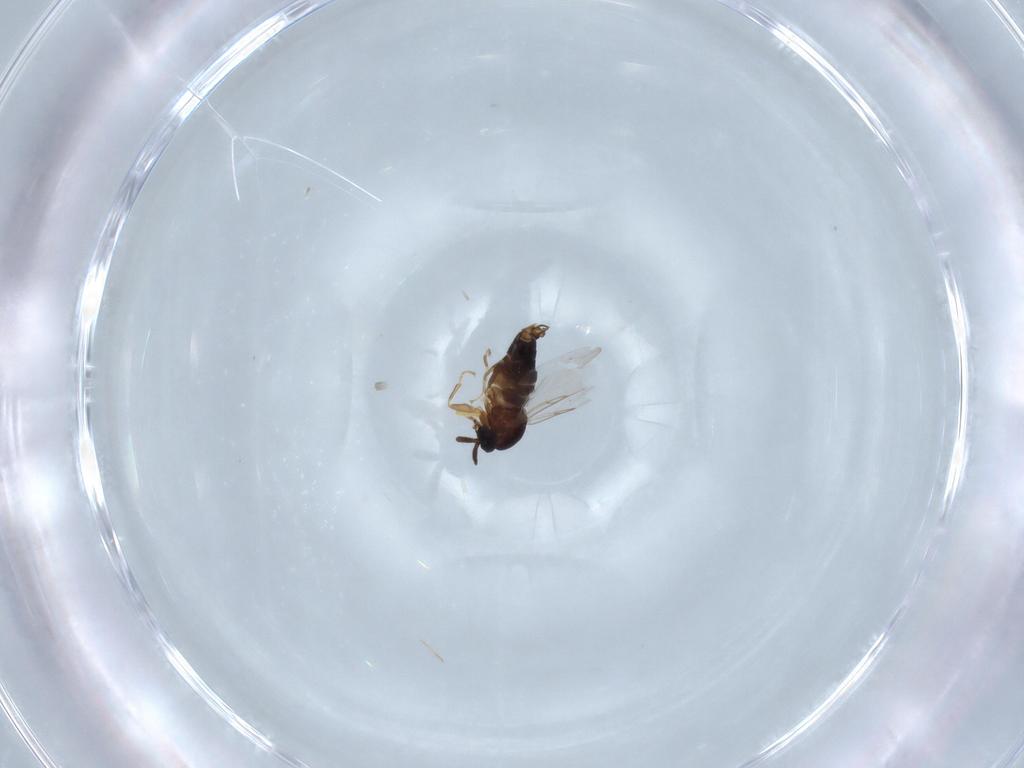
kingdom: Animalia
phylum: Arthropoda
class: Insecta
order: Diptera
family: Scatopsidae
